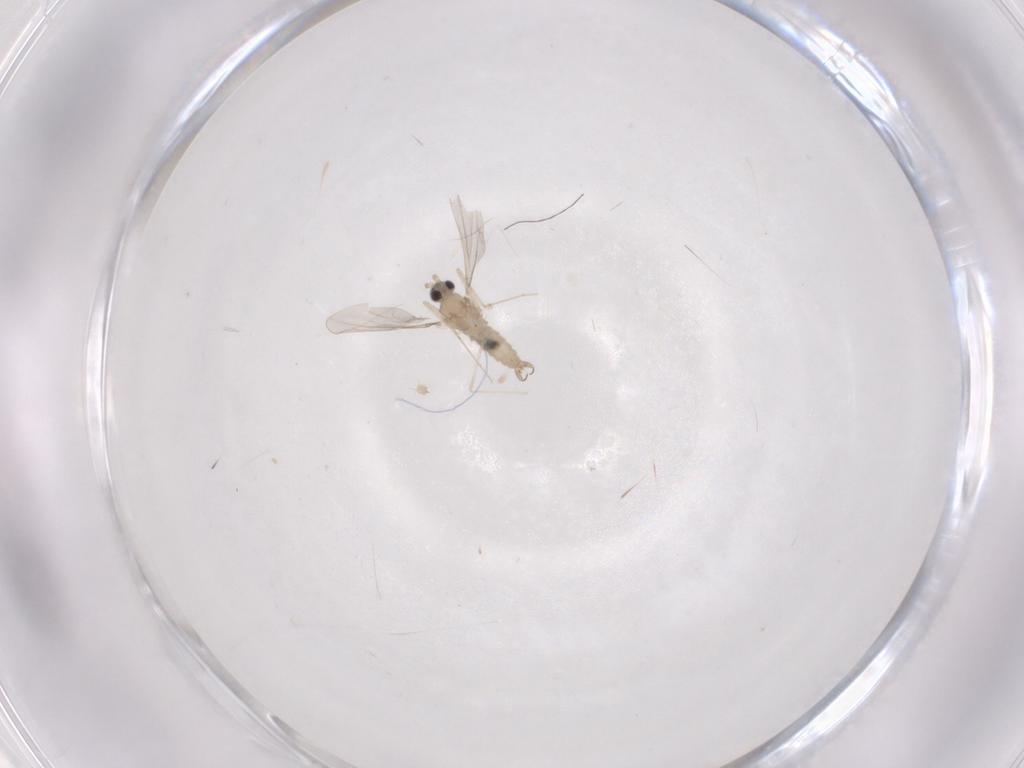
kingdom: Animalia
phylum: Arthropoda
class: Insecta
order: Diptera
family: Cecidomyiidae
